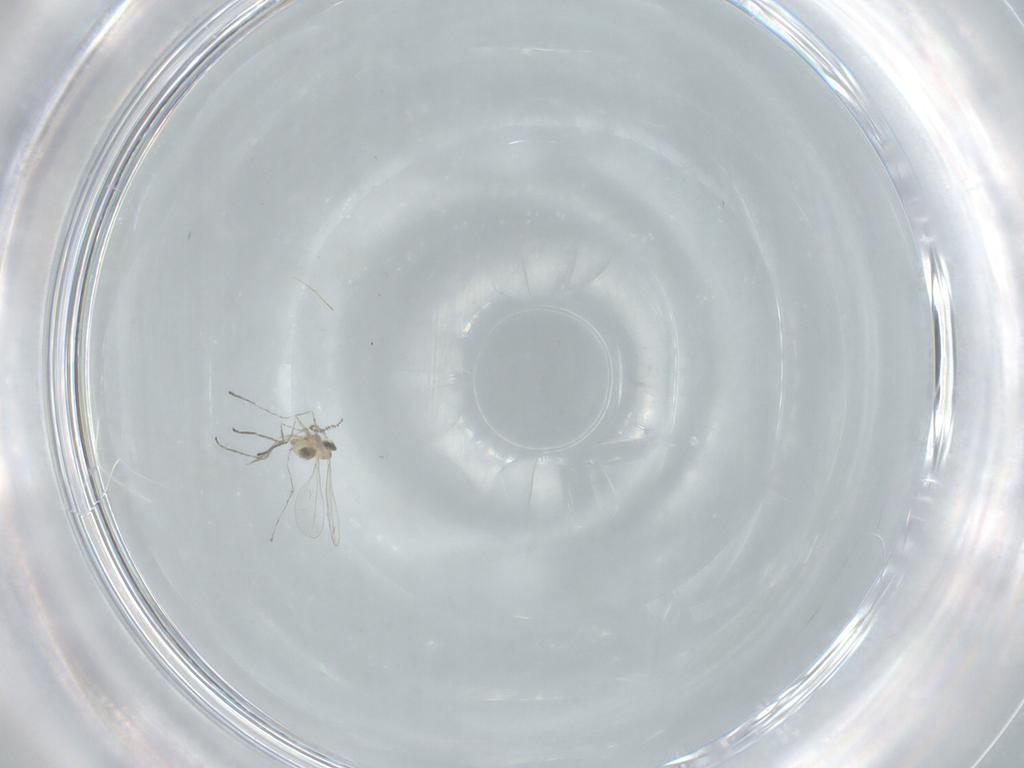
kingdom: Animalia
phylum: Arthropoda
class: Insecta
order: Diptera
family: Cecidomyiidae
